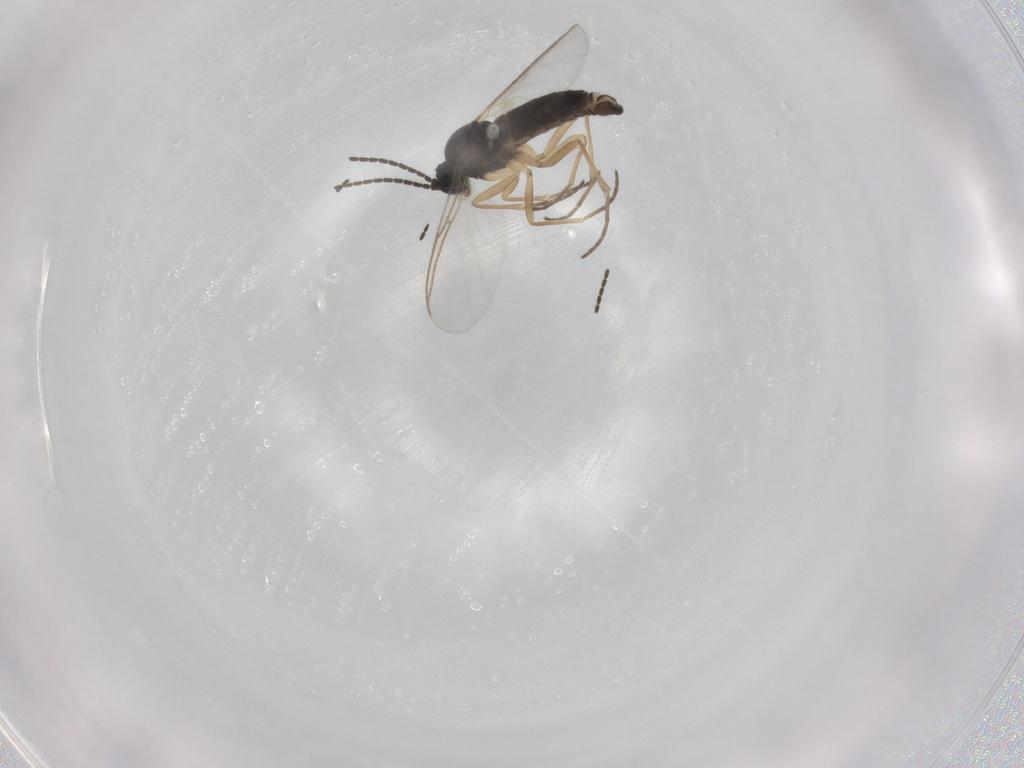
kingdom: Animalia
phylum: Arthropoda
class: Insecta
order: Diptera
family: Sciaridae
